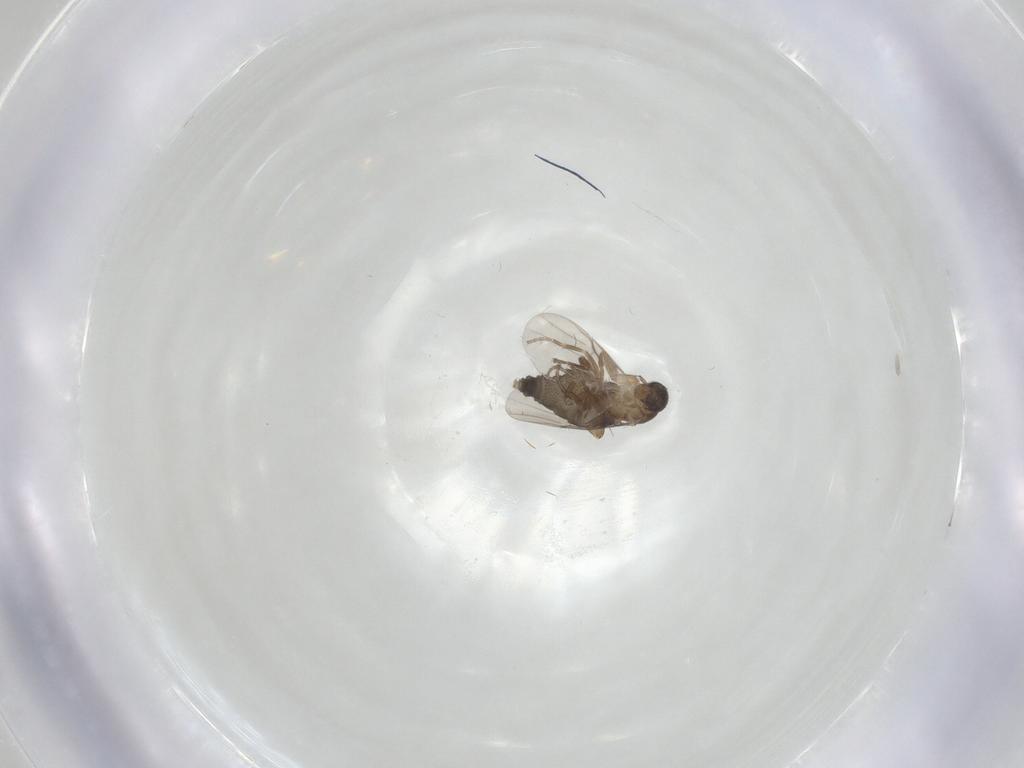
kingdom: Animalia
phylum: Arthropoda
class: Insecta
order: Diptera
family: Phoridae
